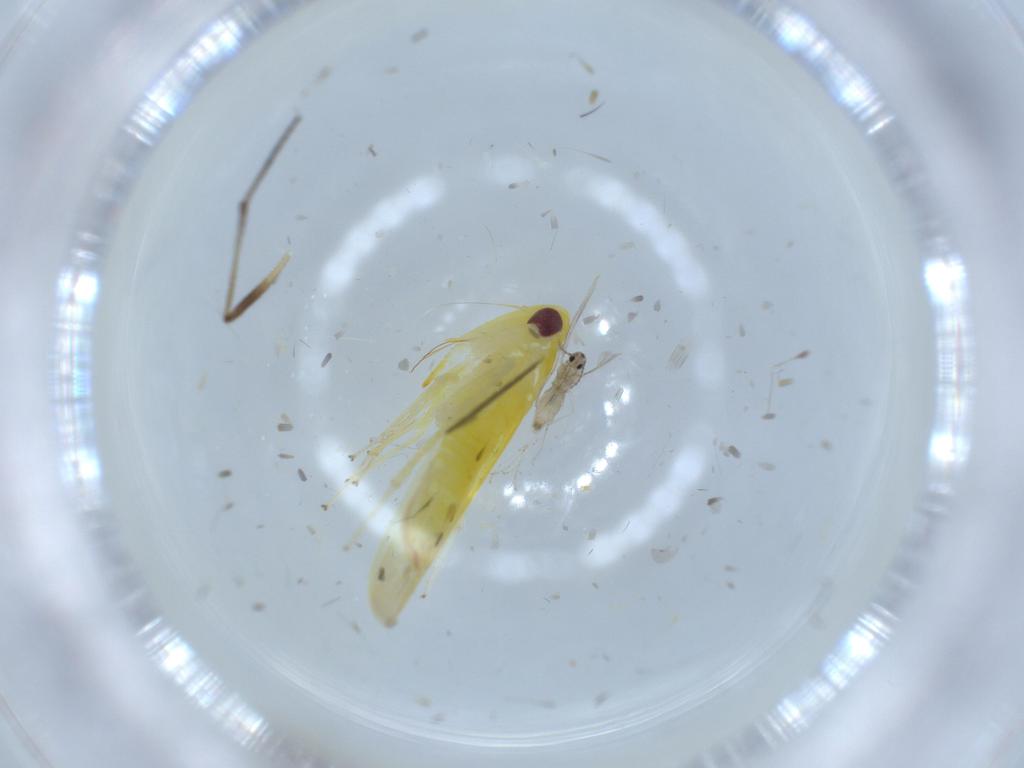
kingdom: Animalia
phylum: Arthropoda
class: Insecta
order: Hemiptera
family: Cicadellidae
